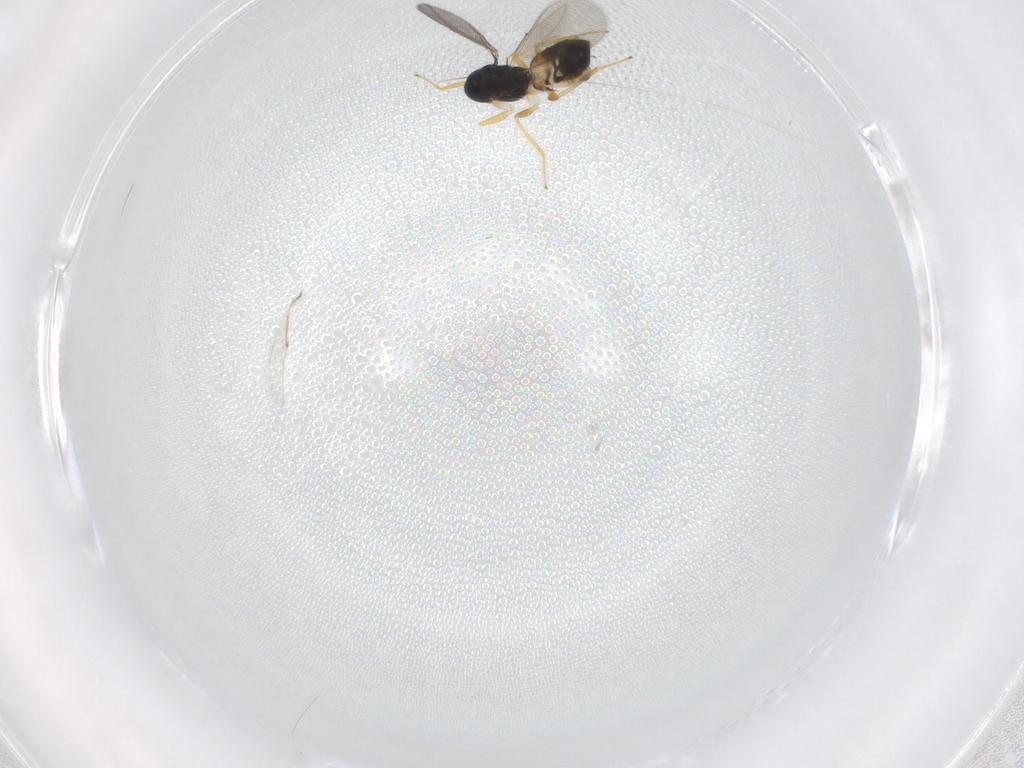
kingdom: Animalia
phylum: Arthropoda
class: Insecta
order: Hymenoptera
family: Eulophidae
